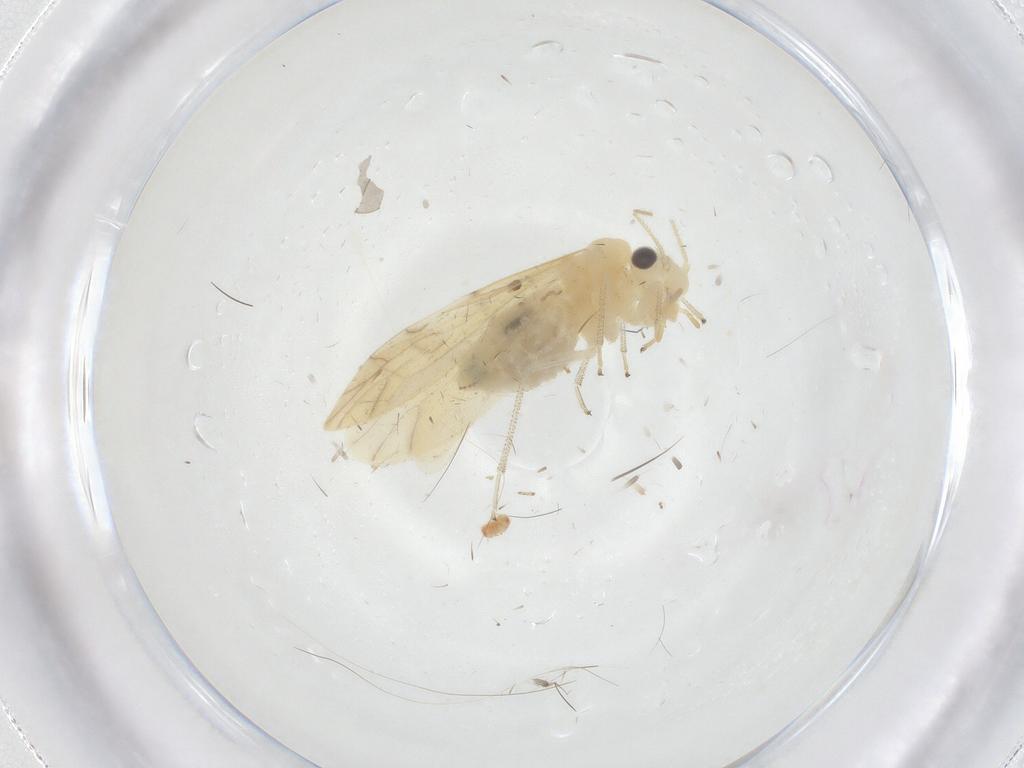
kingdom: Animalia
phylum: Arthropoda
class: Insecta
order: Psocodea
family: Caeciliusidae
